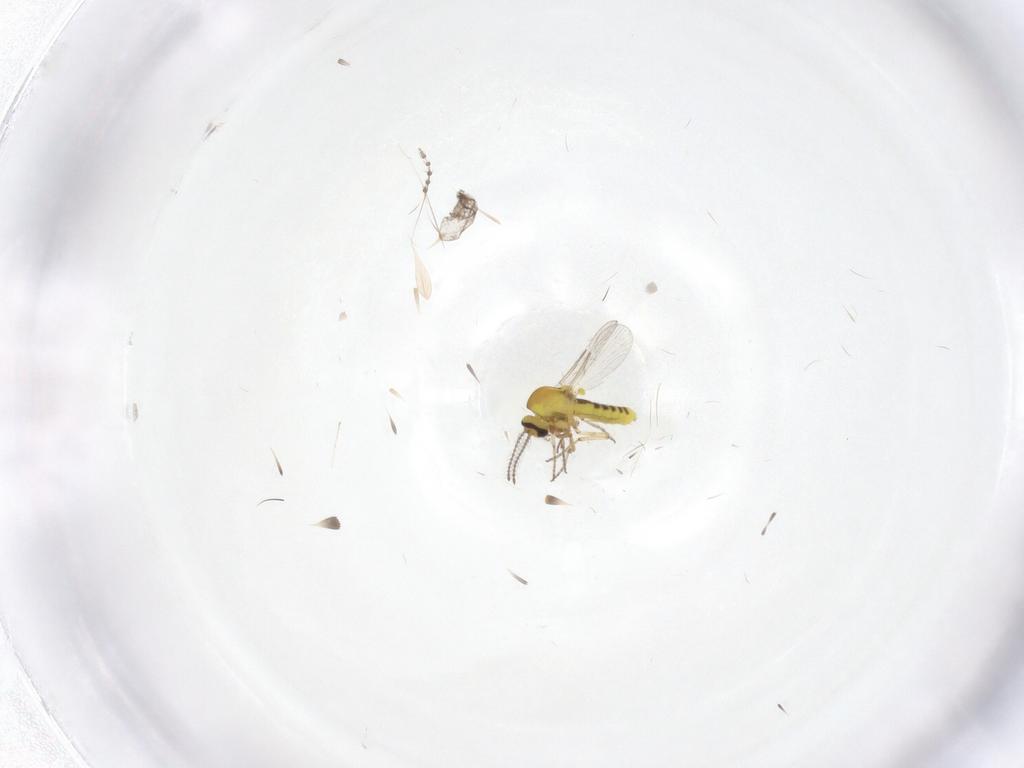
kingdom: Animalia
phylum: Arthropoda
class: Insecta
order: Diptera
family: Ceratopogonidae
